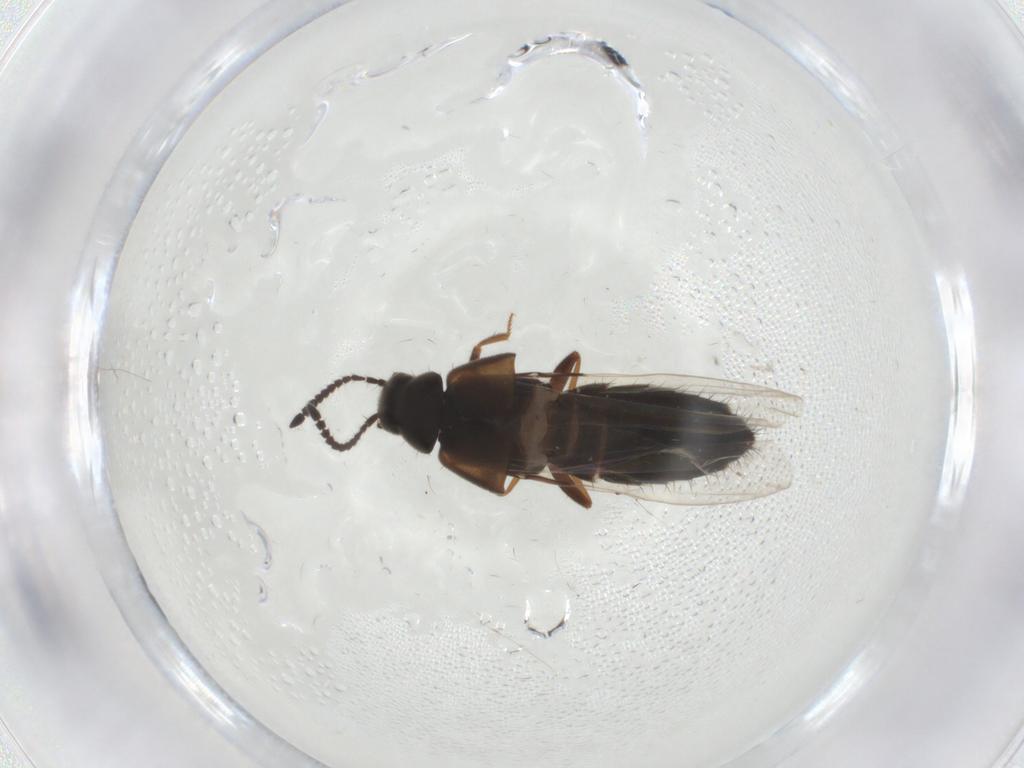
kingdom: Animalia
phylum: Arthropoda
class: Insecta
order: Coleoptera
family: Staphylinidae
